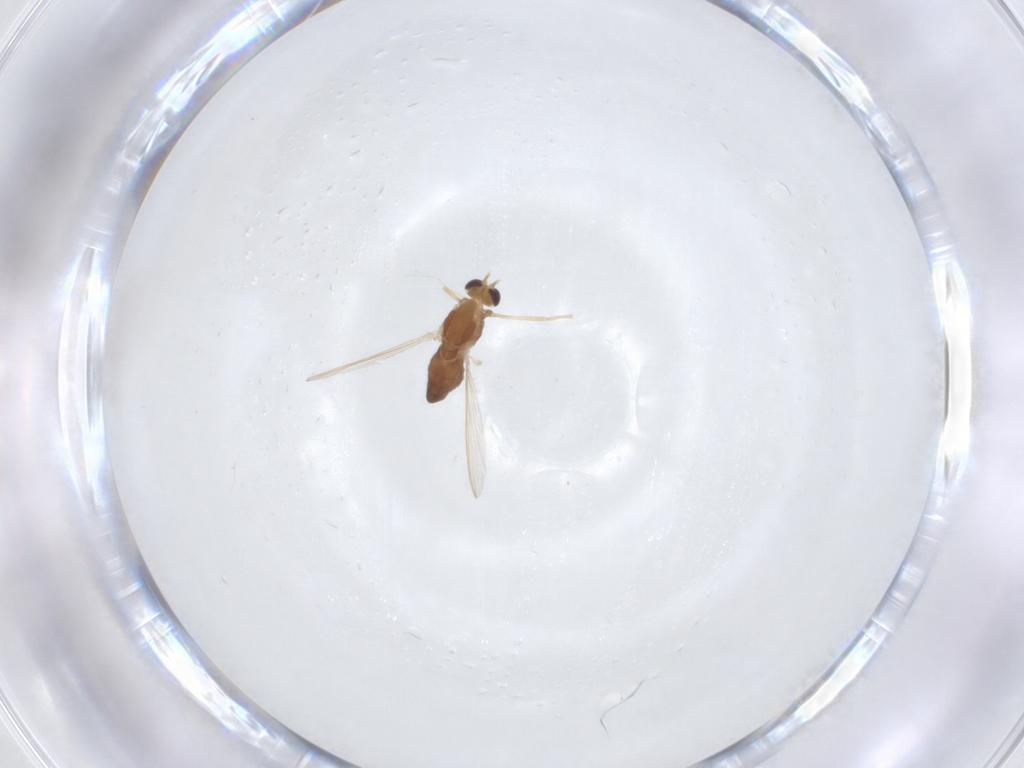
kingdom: Animalia
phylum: Arthropoda
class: Insecta
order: Diptera
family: Chironomidae
